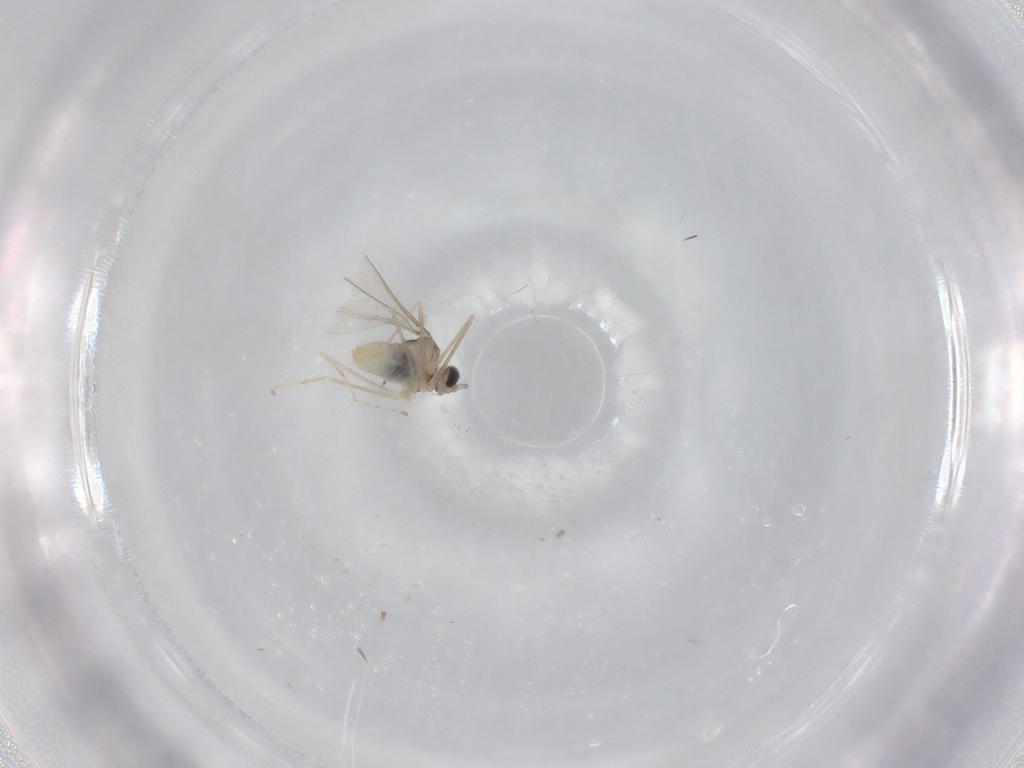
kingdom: Animalia
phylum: Arthropoda
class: Insecta
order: Diptera
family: Cecidomyiidae
